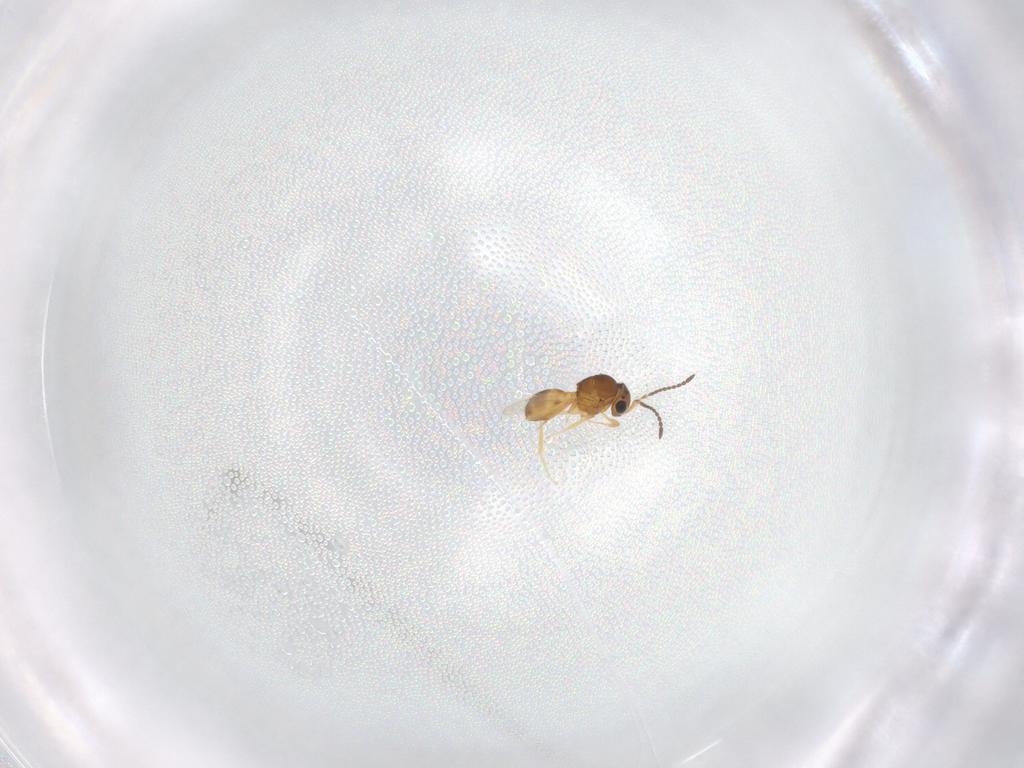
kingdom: Animalia
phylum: Arthropoda
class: Insecta
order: Hymenoptera
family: Scelionidae
